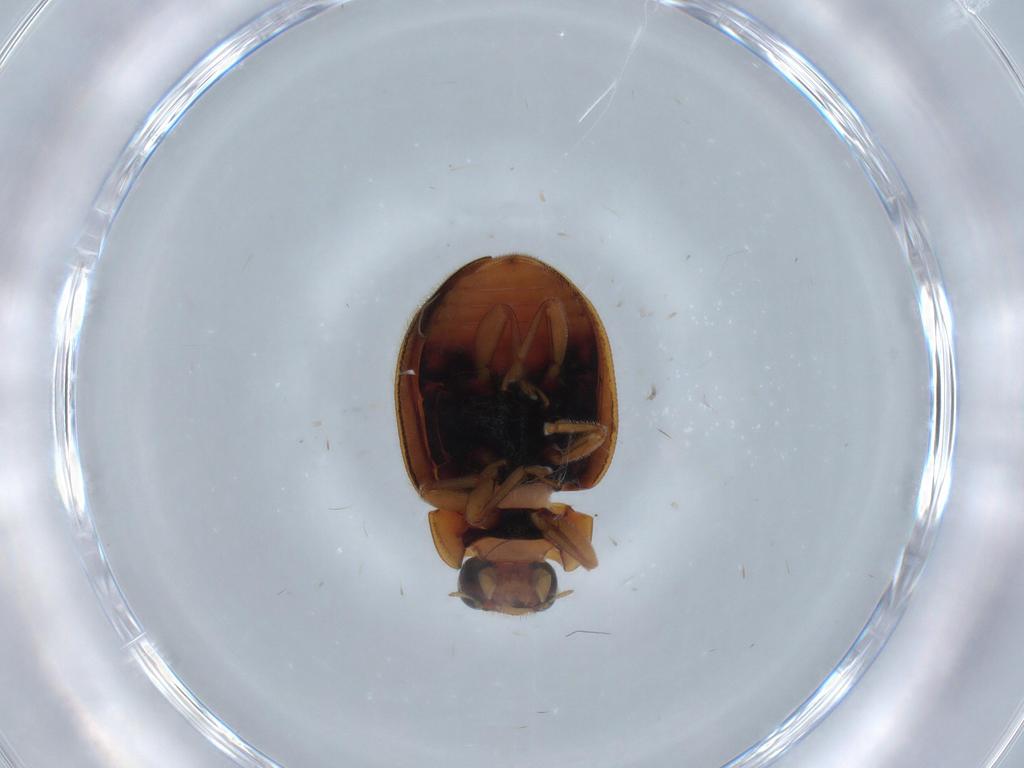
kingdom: Animalia
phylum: Arthropoda
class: Insecta
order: Coleoptera
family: Coccinellidae
